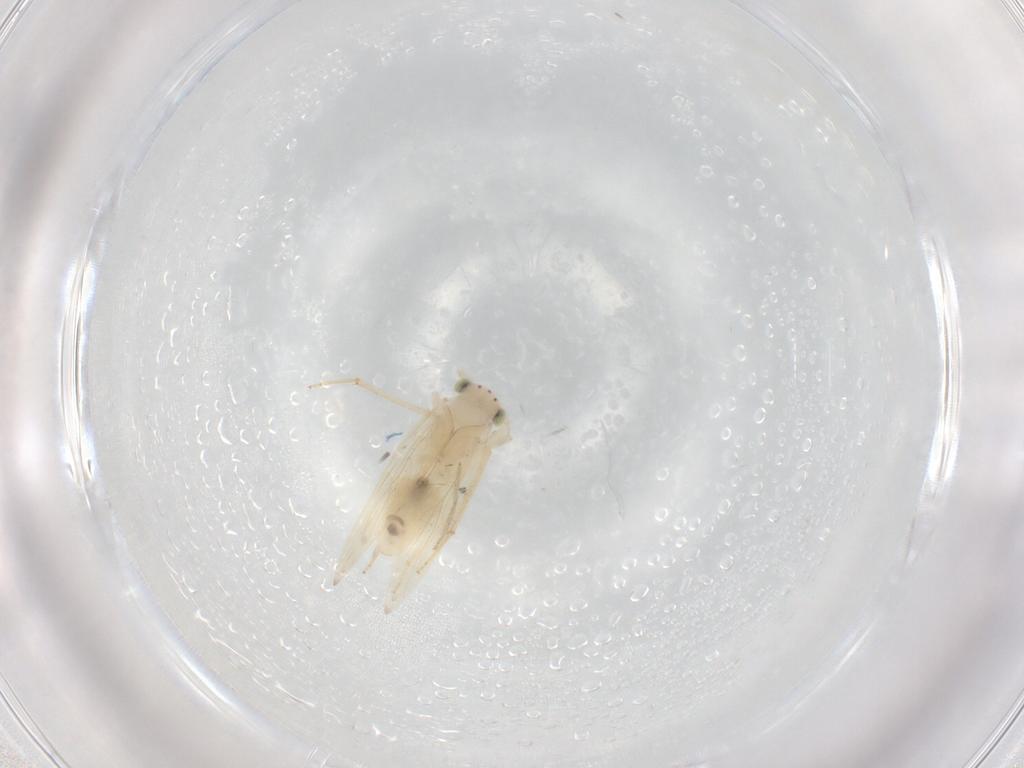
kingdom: Animalia
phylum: Arthropoda
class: Insecta
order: Psocodea
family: Lepidopsocidae
